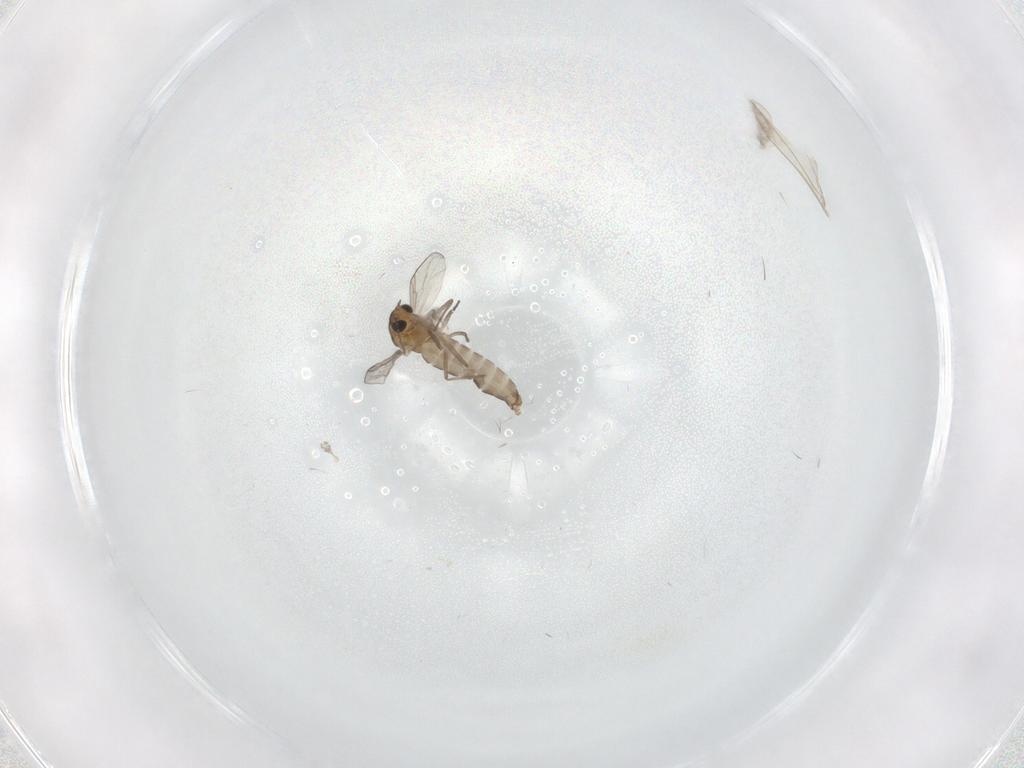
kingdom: Animalia
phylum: Arthropoda
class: Insecta
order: Diptera
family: Cecidomyiidae
